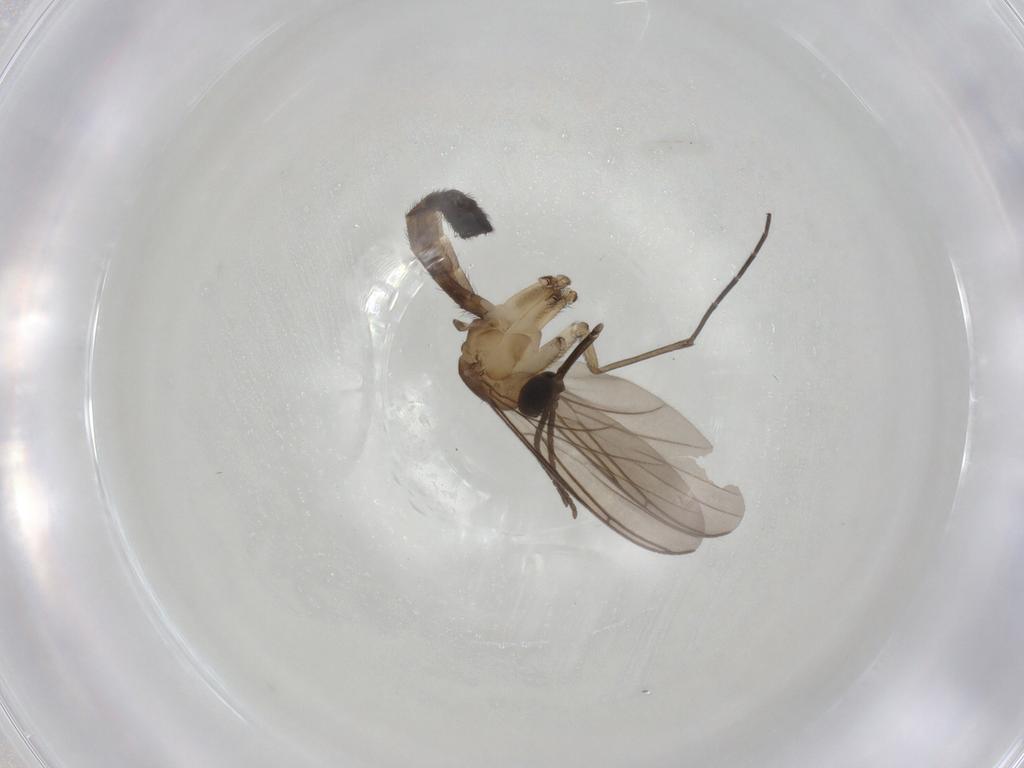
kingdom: Animalia
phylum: Arthropoda
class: Insecta
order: Diptera
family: Keroplatidae
